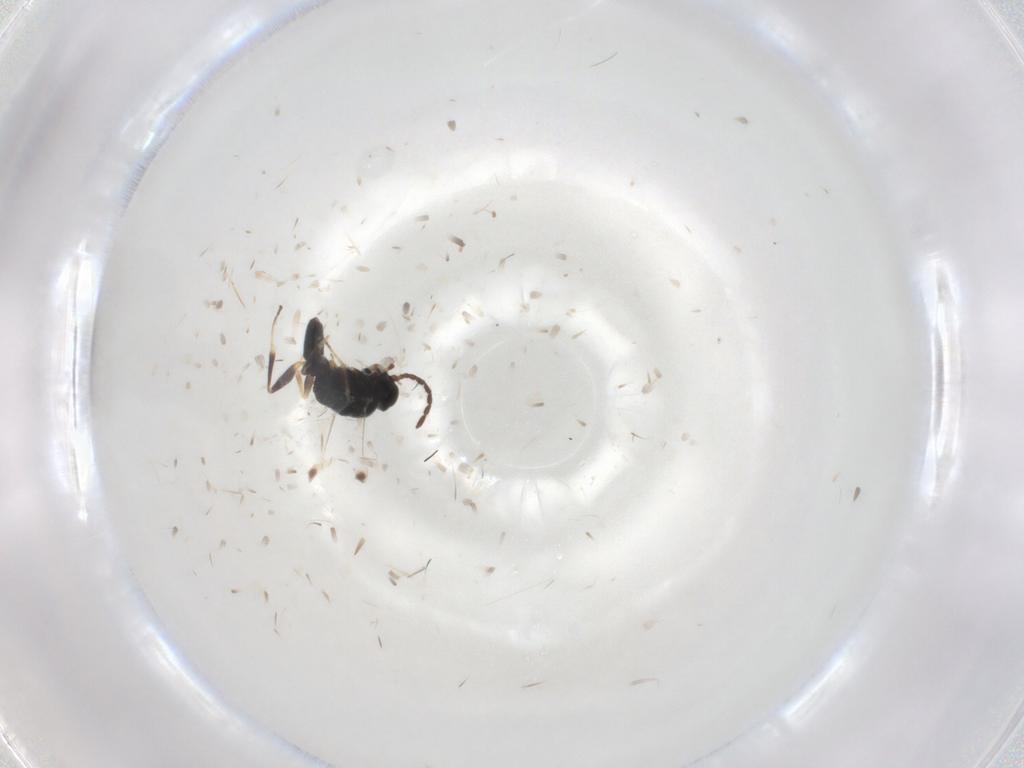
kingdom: Animalia
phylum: Arthropoda
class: Insecta
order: Hymenoptera
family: Dryinidae
